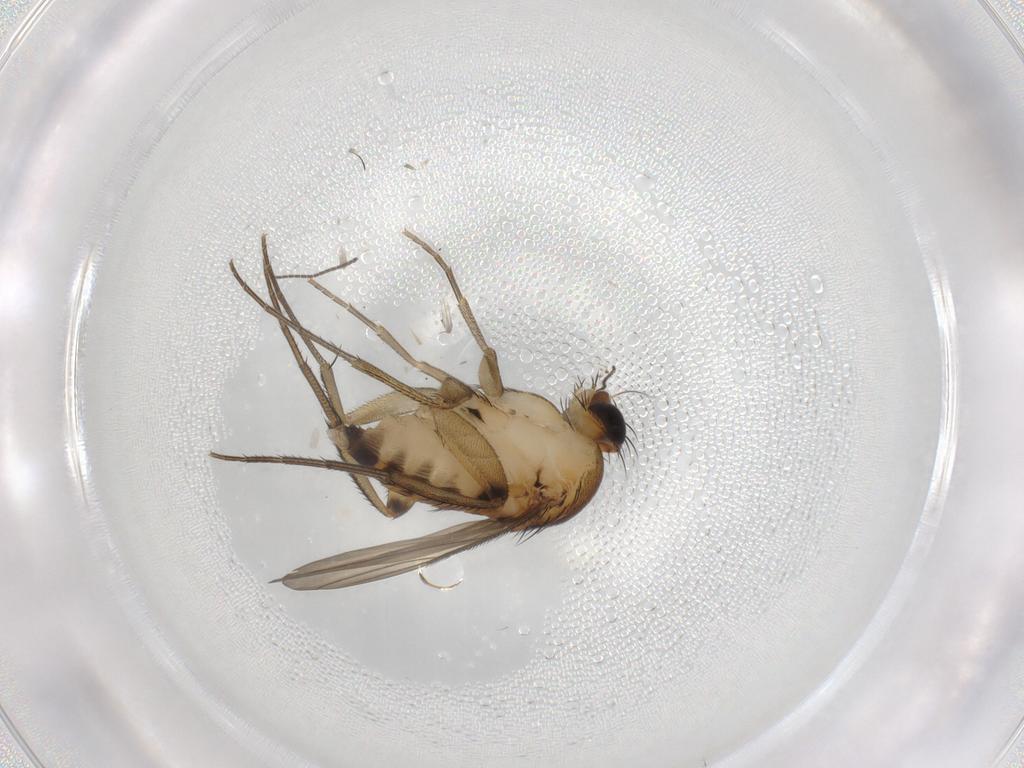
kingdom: Animalia
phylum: Arthropoda
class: Insecta
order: Diptera
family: Phoridae
